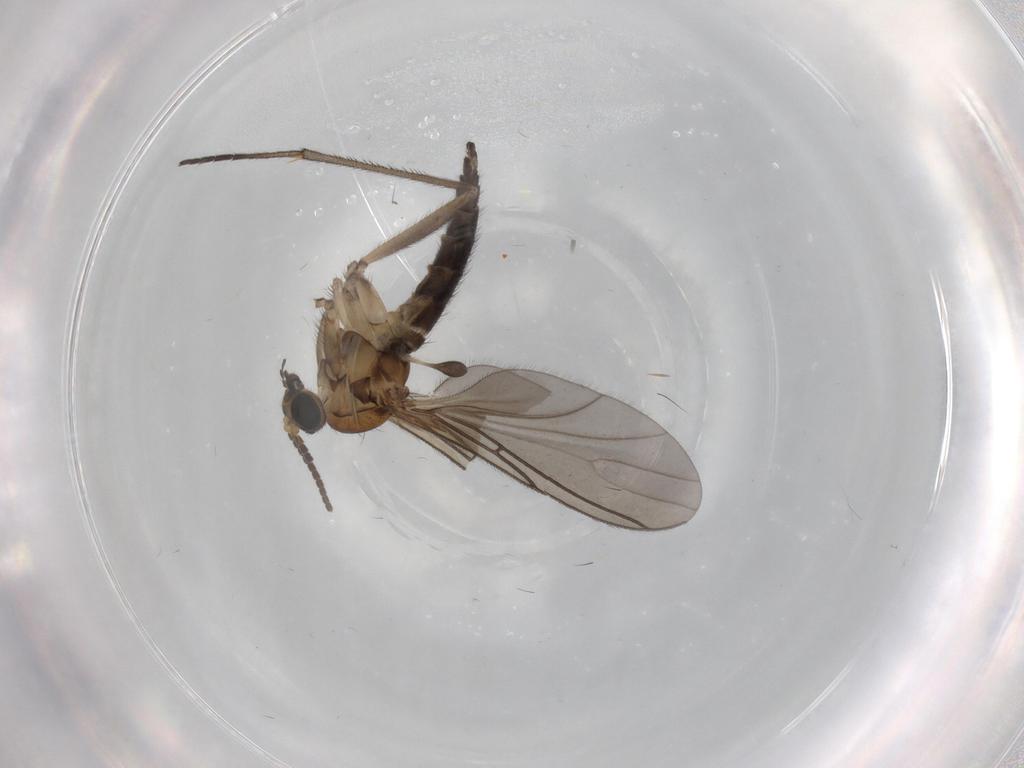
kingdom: Animalia
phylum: Arthropoda
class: Insecta
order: Diptera
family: Sciaridae
